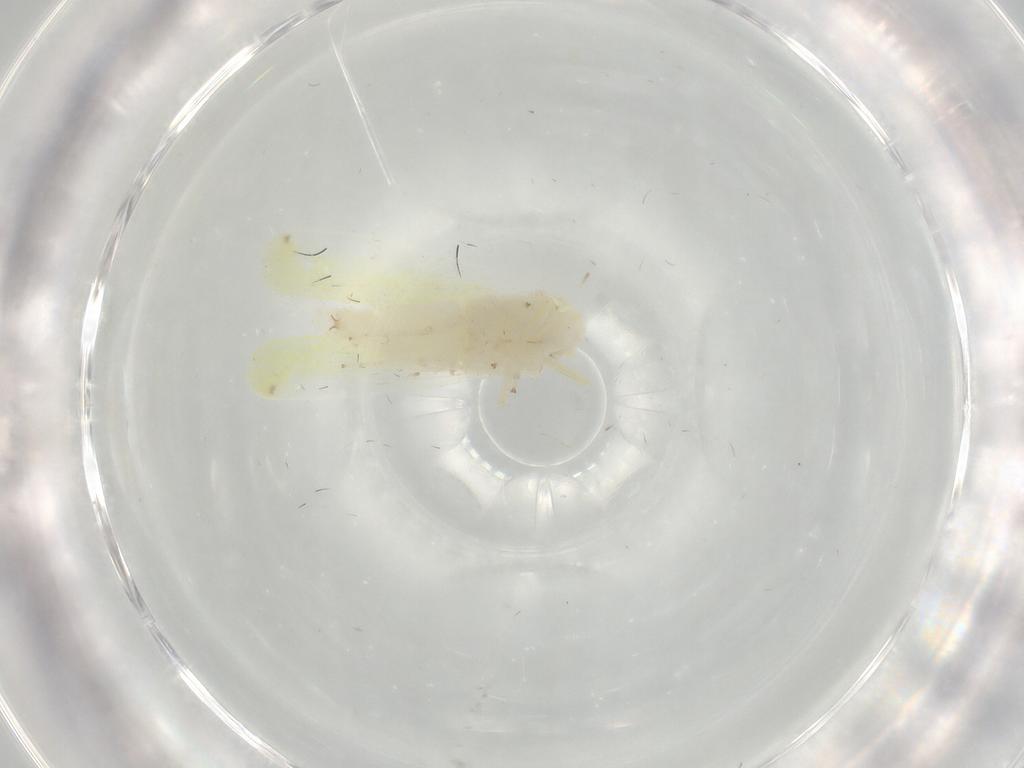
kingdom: Animalia
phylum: Arthropoda
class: Insecta
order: Hemiptera
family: Cicadellidae
